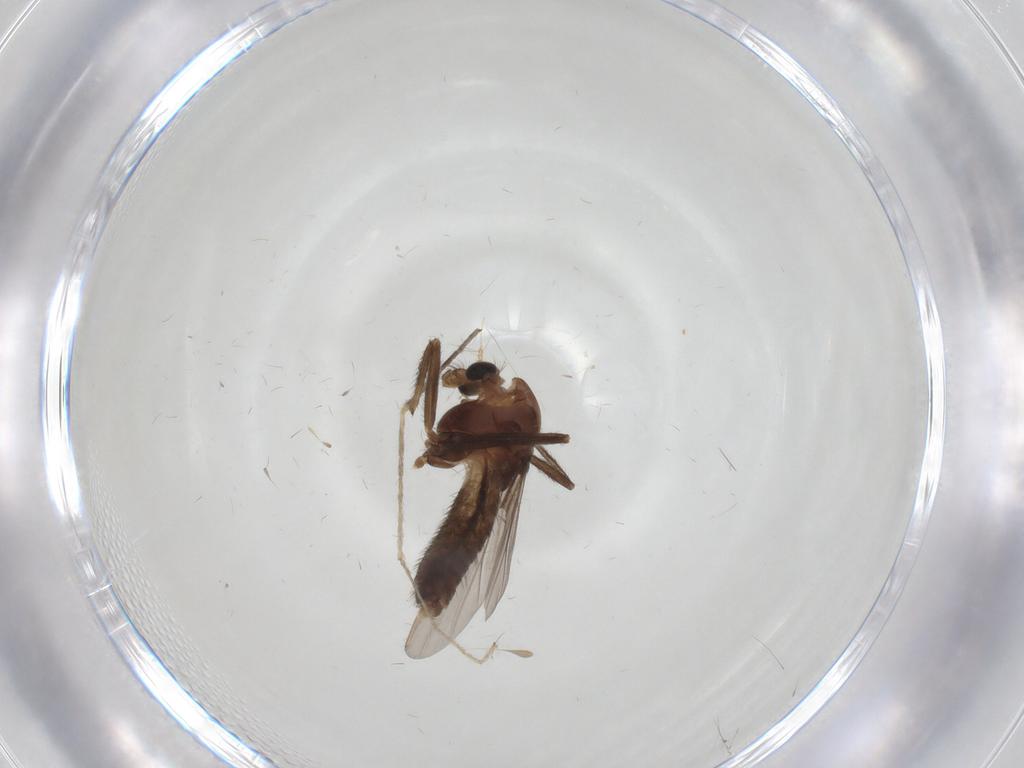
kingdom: Animalia
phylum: Arthropoda
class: Insecta
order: Diptera
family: Chironomidae
